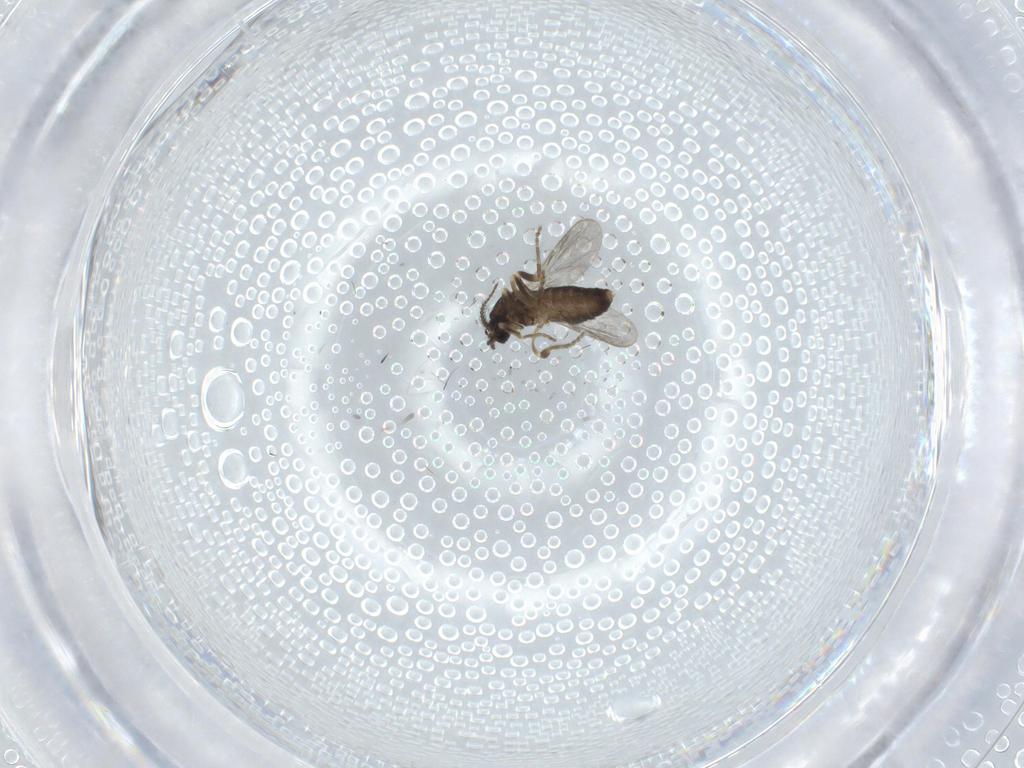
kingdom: Animalia
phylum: Arthropoda
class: Insecta
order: Diptera
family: Ceratopogonidae
